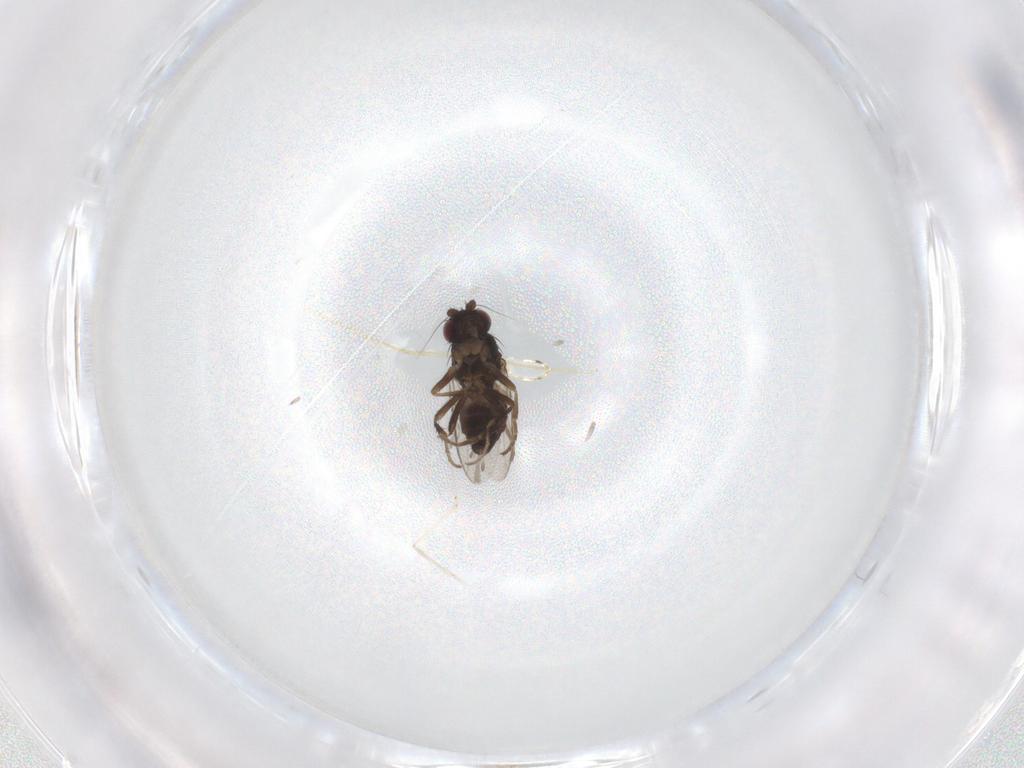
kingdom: Animalia
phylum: Arthropoda
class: Insecta
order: Diptera
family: Sphaeroceridae
